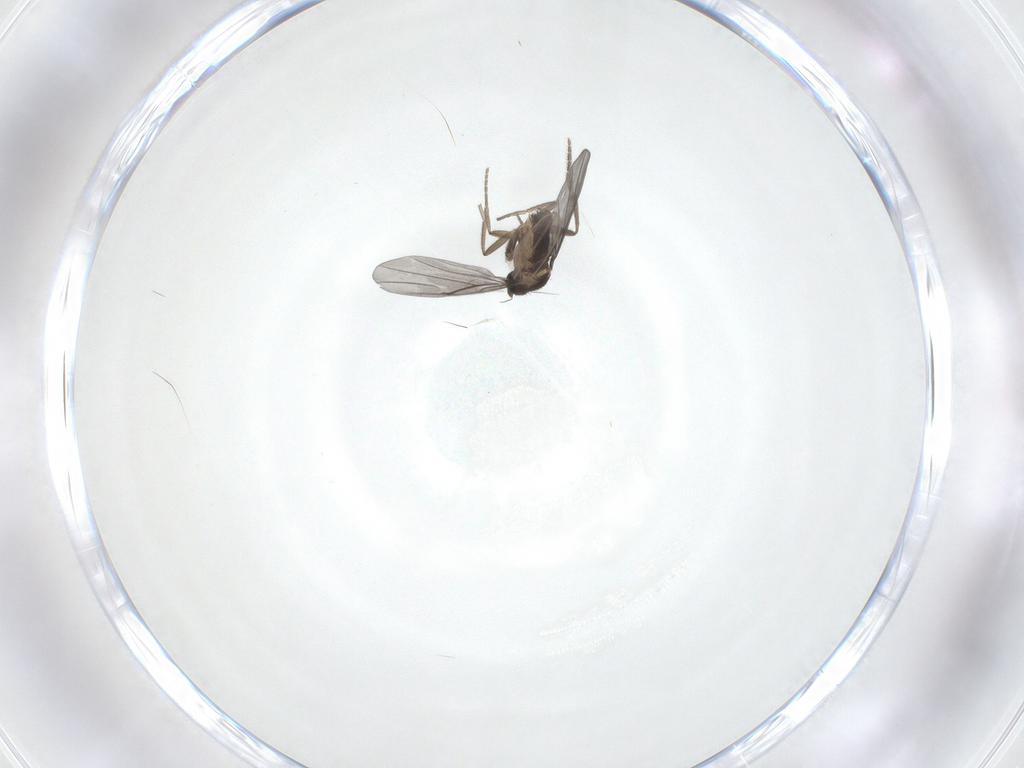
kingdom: Animalia
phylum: Arthropoda
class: Insecta
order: Diptera
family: Cecidomyiidae
